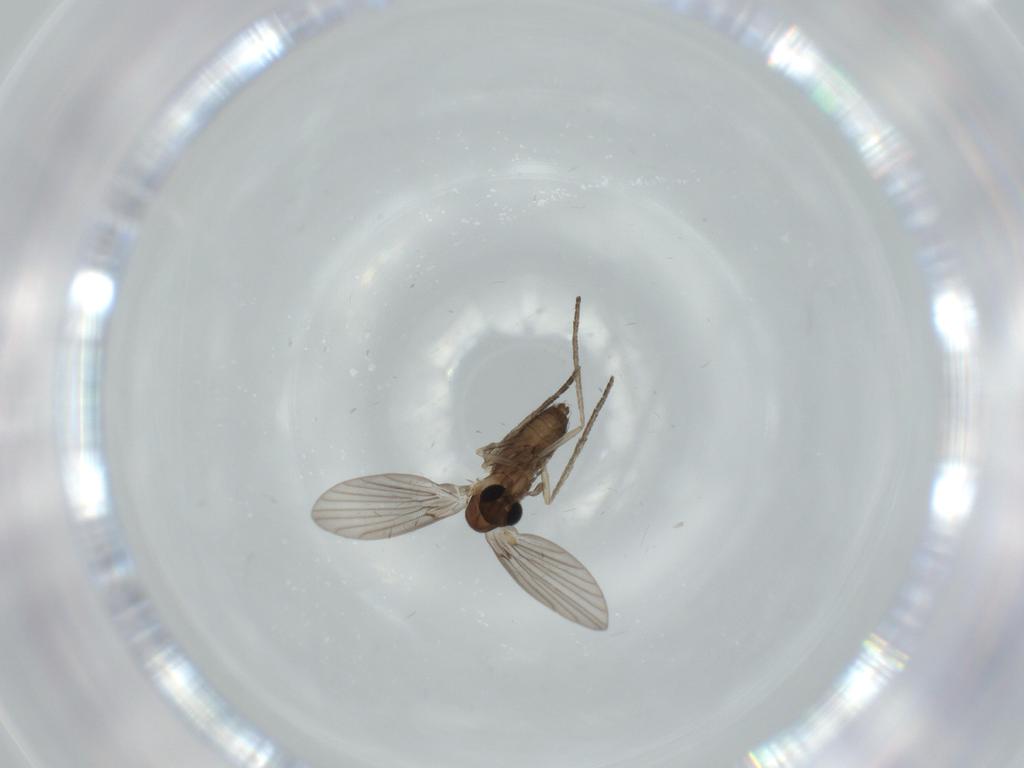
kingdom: Animalia
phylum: Arthropoda
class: Insecta
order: Diptera
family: Psychodidae
